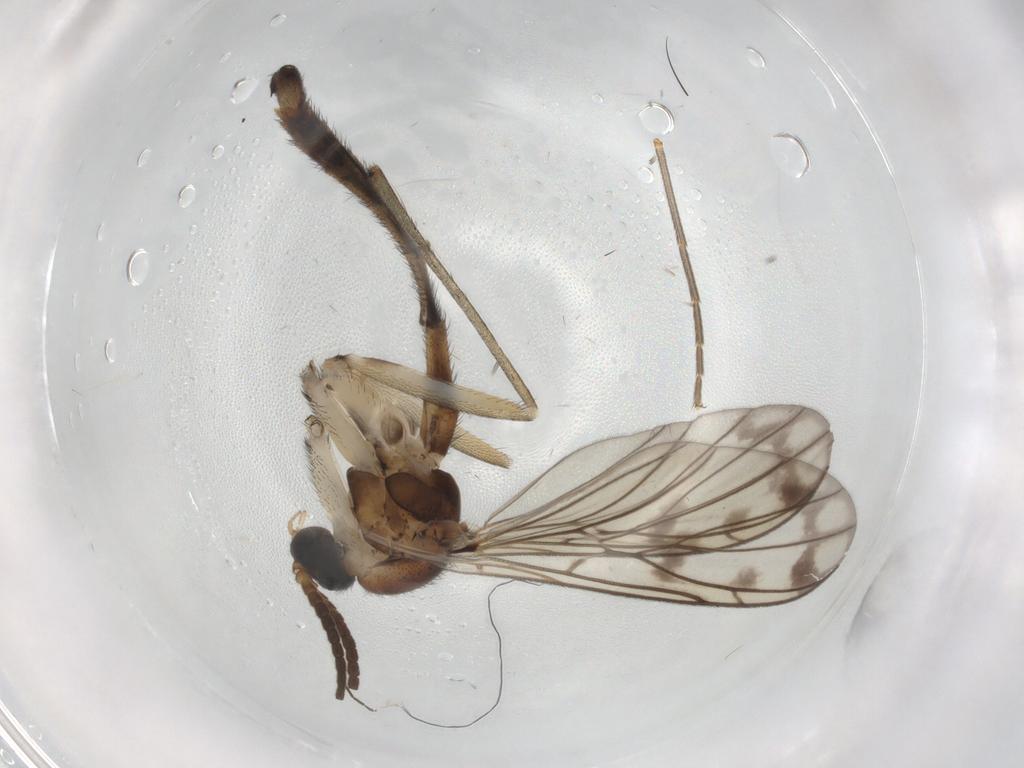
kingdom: Animalia
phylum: Arthropoda
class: Insecta
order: Diptera
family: Keroplatidae
